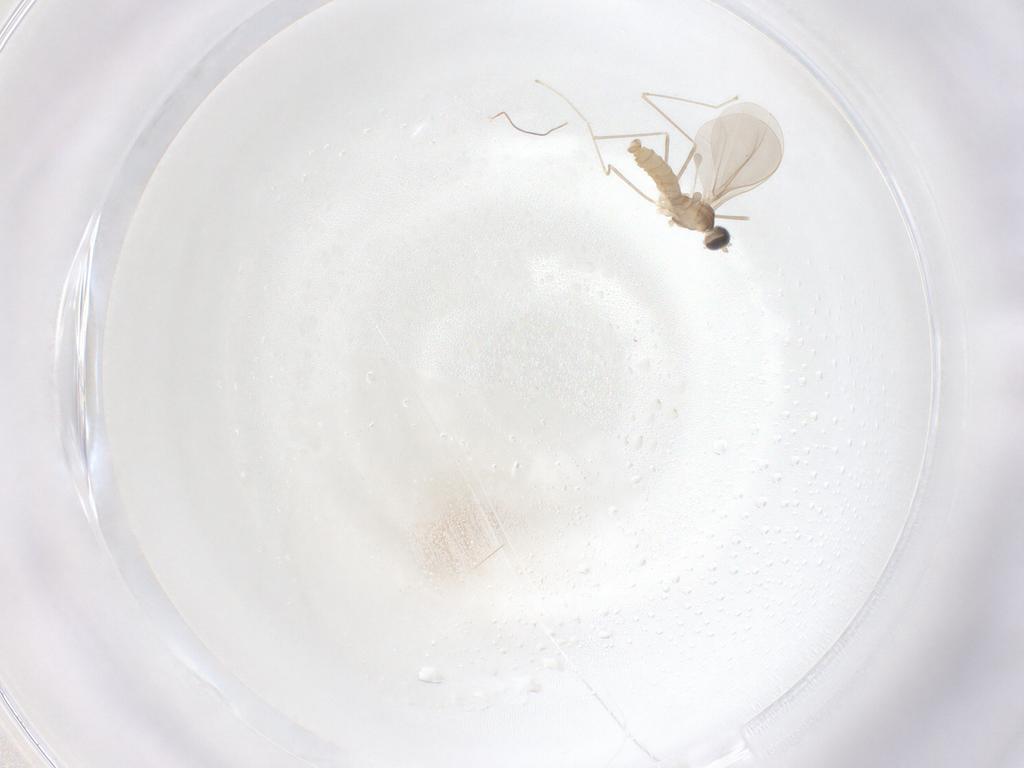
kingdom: Animalia
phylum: Arthropoda
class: Insecta
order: Diptera
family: Cecidomyiidae
